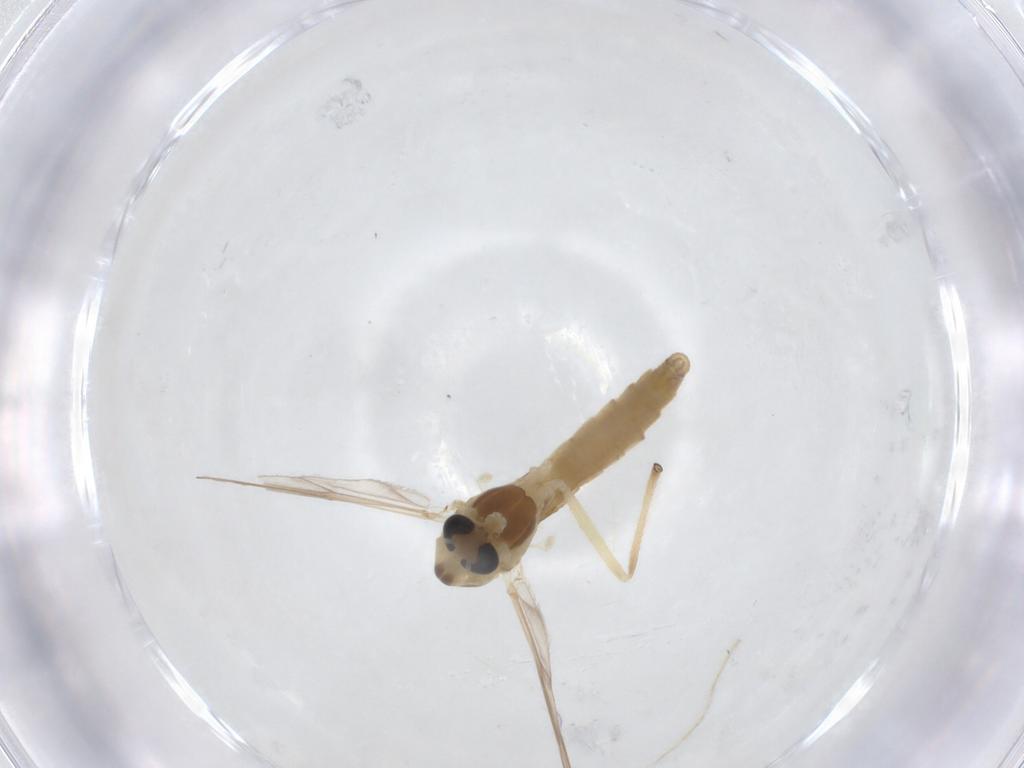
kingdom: Animalia
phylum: Arthropoda
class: Insecta
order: Diptera
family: Chironomidae
